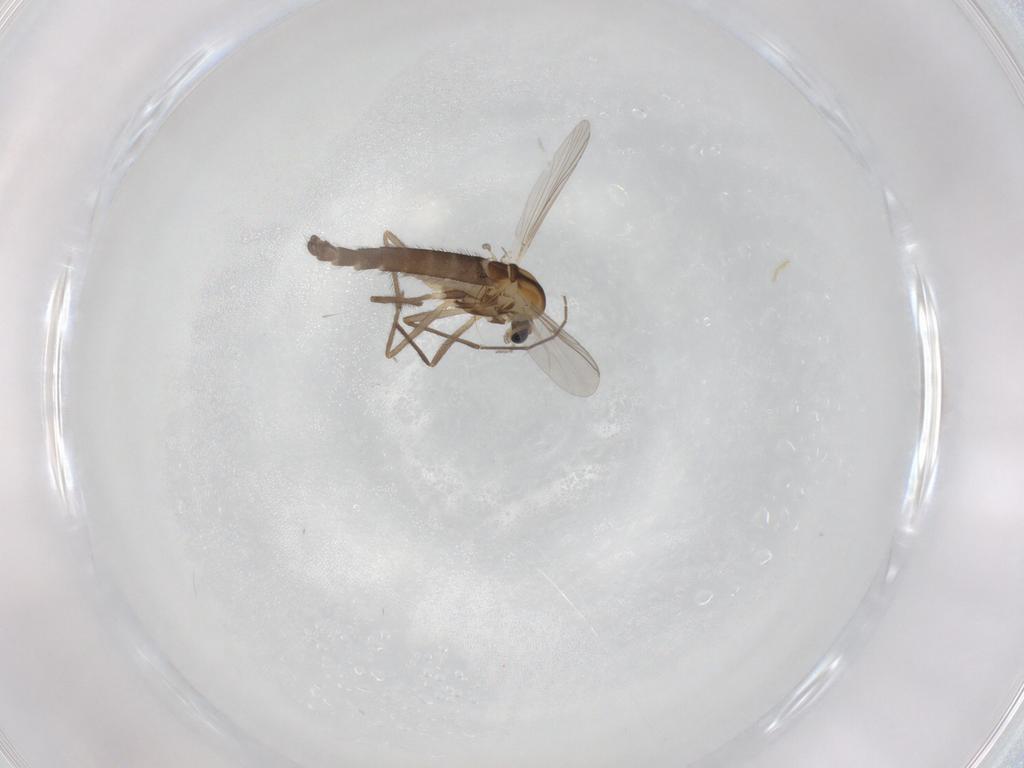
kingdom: Animalia
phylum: Arthropoda
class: Insecta
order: Diptera
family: Chironomidae
